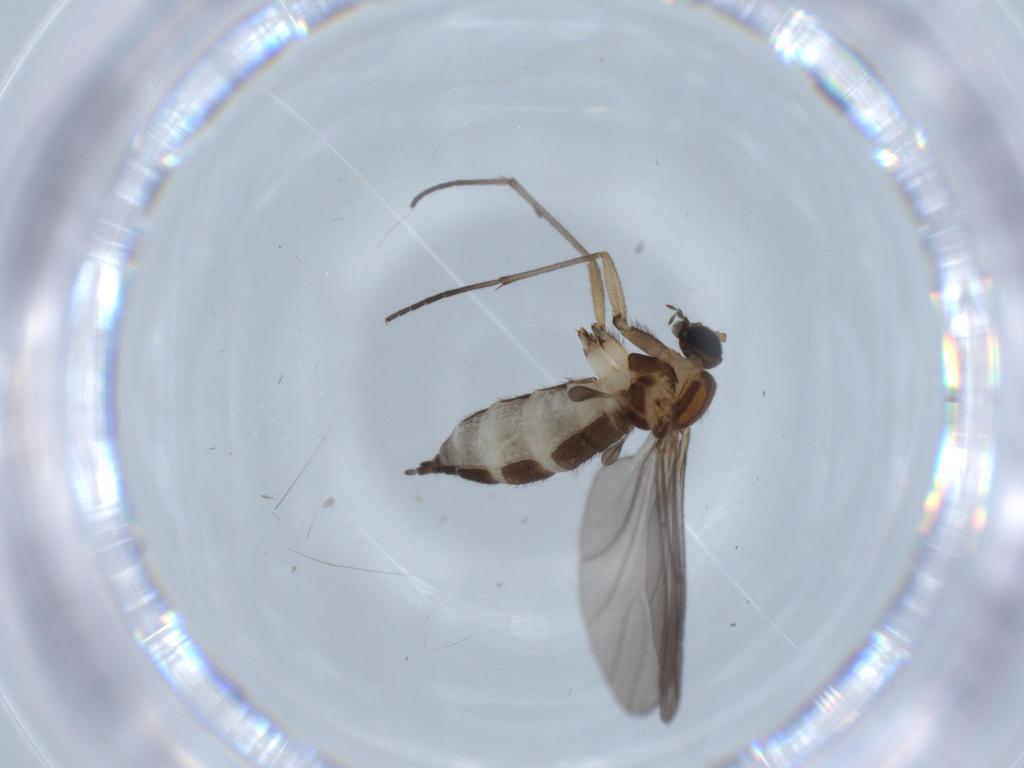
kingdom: Animalia
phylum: Arthropoda
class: Insecta
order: Diptera
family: Sciaridae
